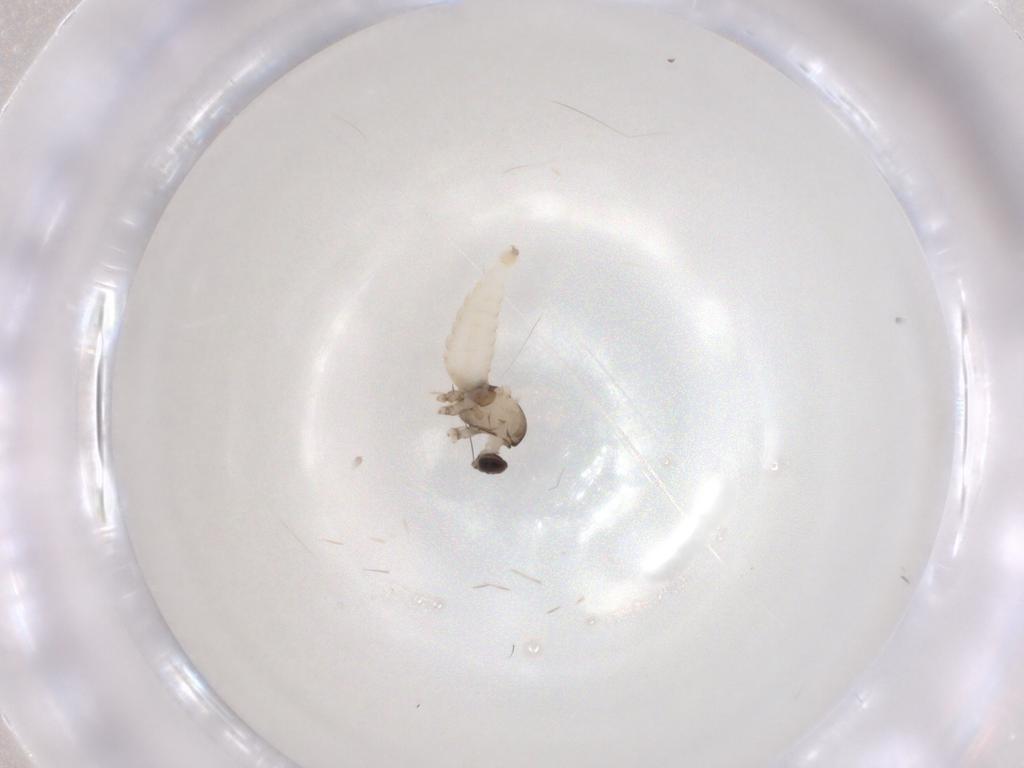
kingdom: Animalia
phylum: Arthropoda
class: Insecta
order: Diptera
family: Cecidomyiidae
